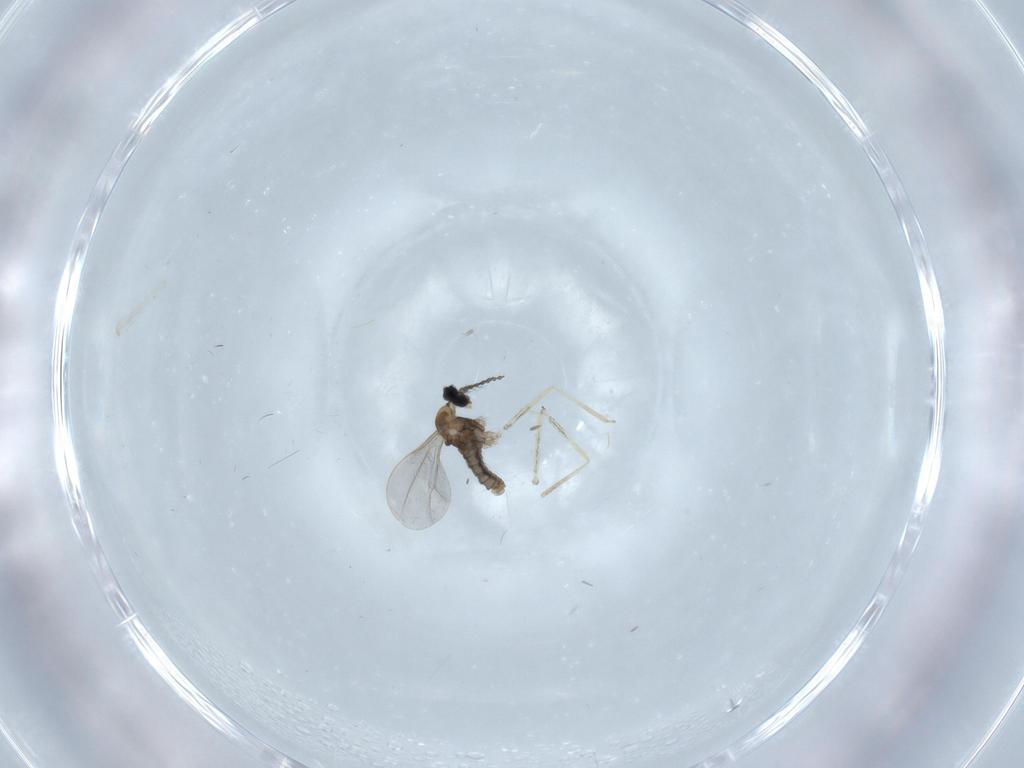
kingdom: Animalia
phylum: Arthropoda
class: Insecta
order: Diptera
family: Cecidomyiidae
